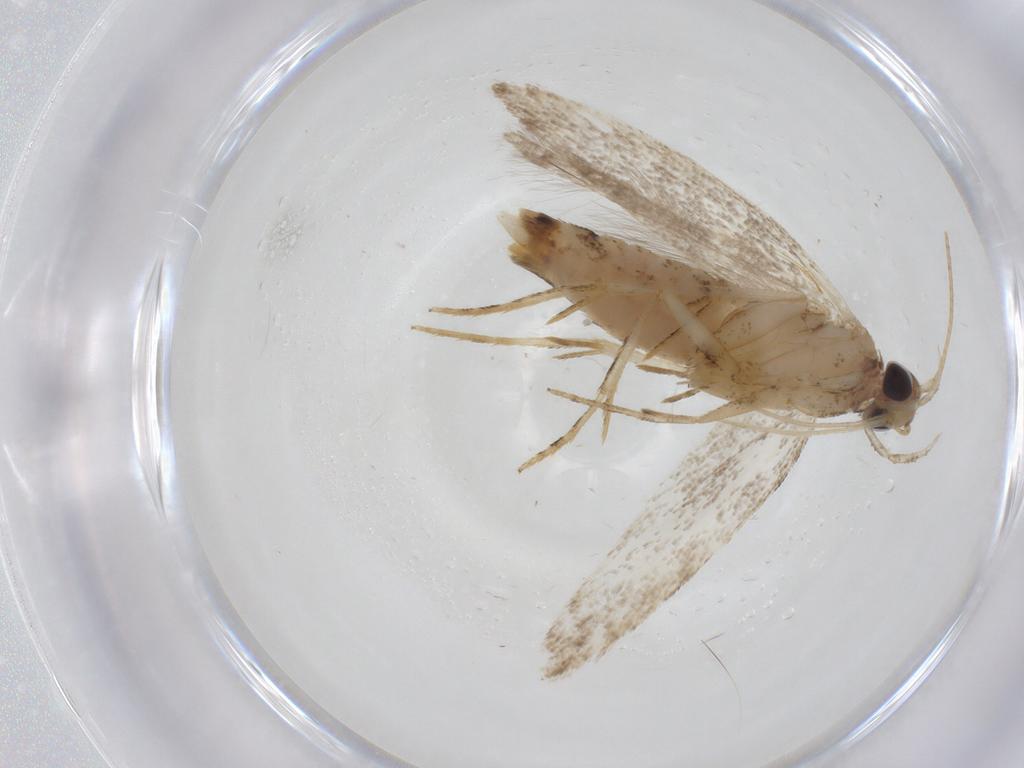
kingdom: Animalia
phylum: Arthropoda
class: Insecta
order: Lepidoptera
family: Gelechiidae
